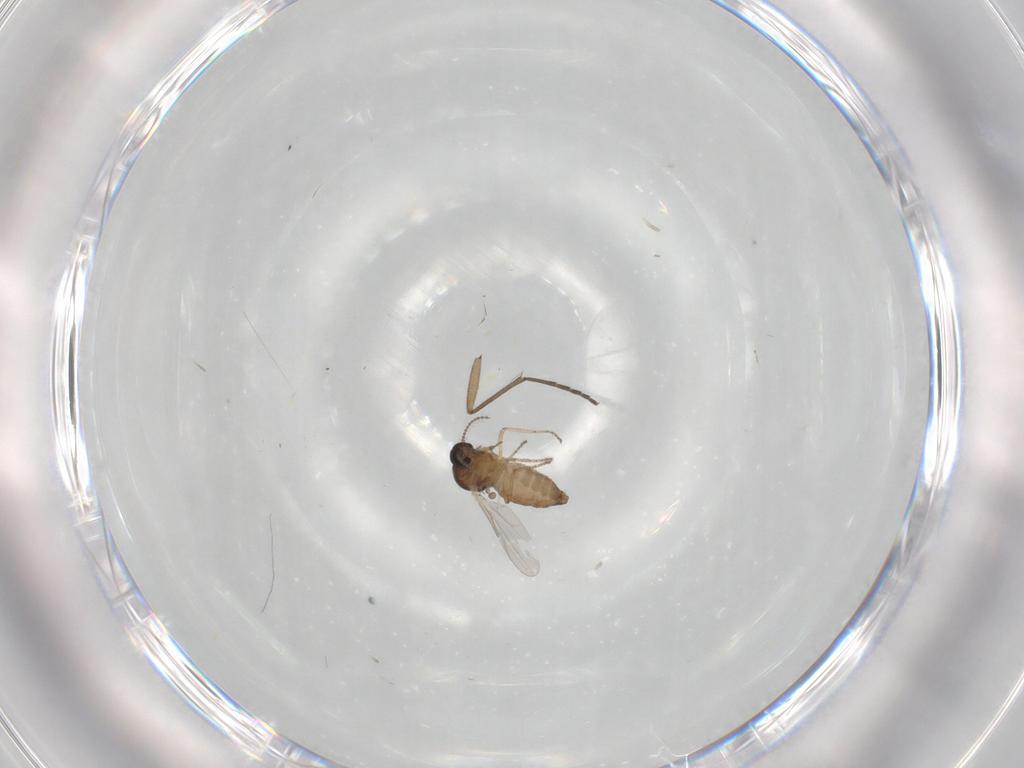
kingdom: Animalia
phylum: Arthropoda
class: Insecta
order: Diptera
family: Ceratopogonidae
